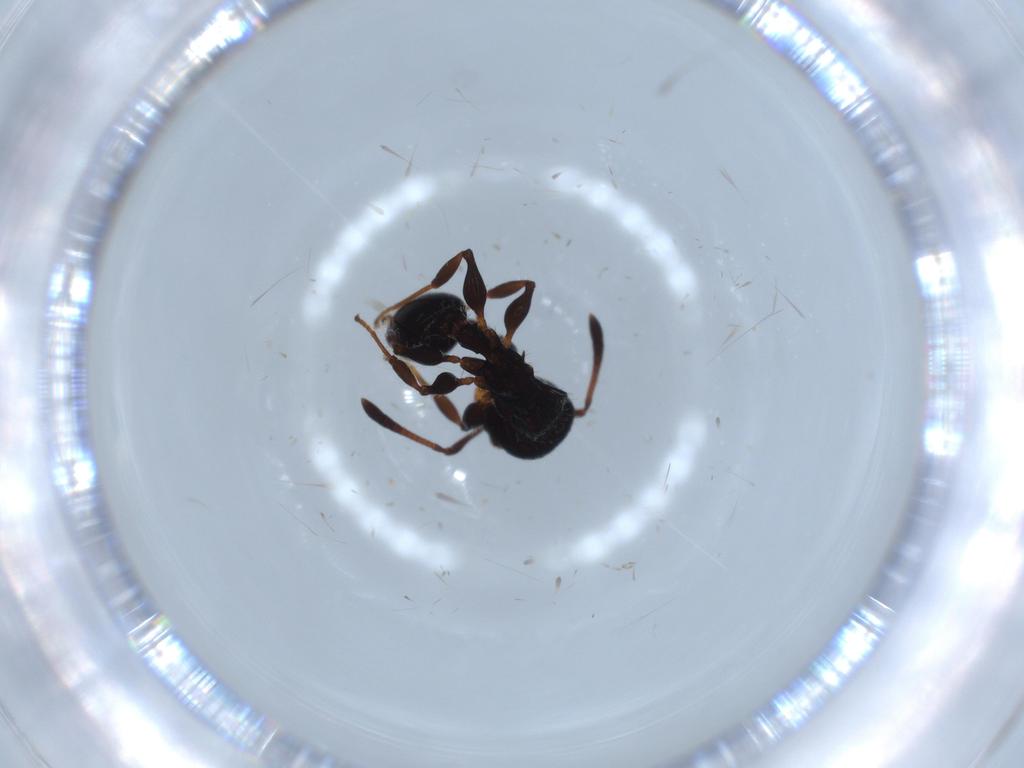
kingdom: Animalia
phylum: Arthropoda
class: Insecta
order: Hymenoptera
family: Formicidae
